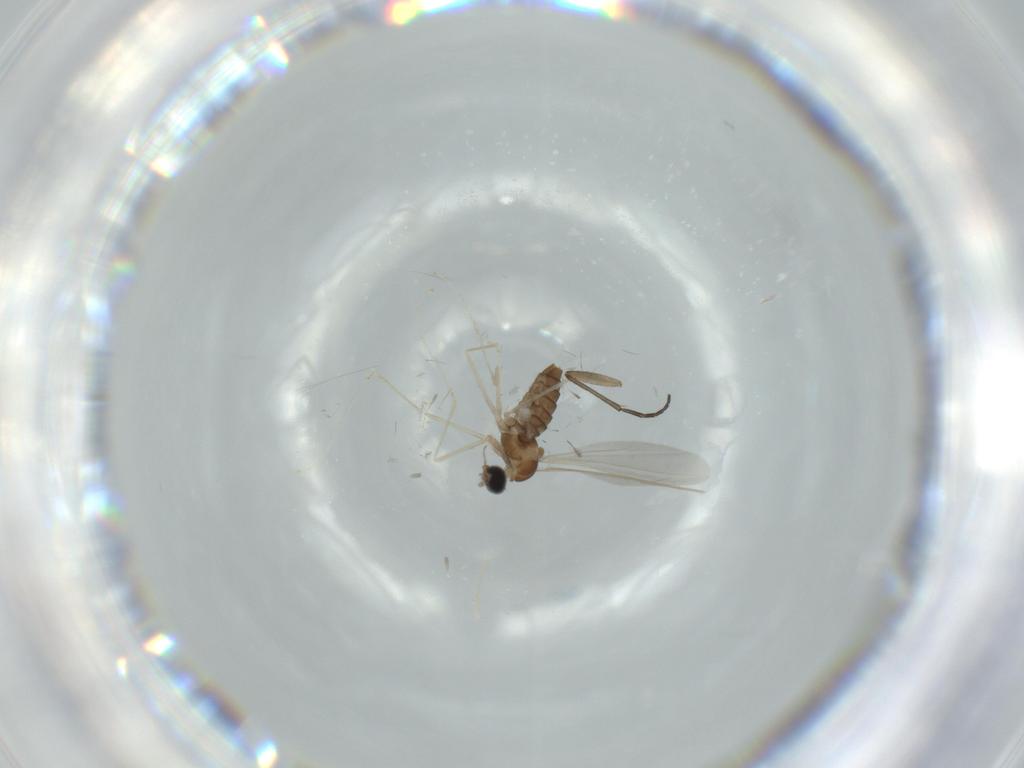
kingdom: Animalia
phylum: Arthropoda
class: Insecta
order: Diptera
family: Cecidomyiidae
